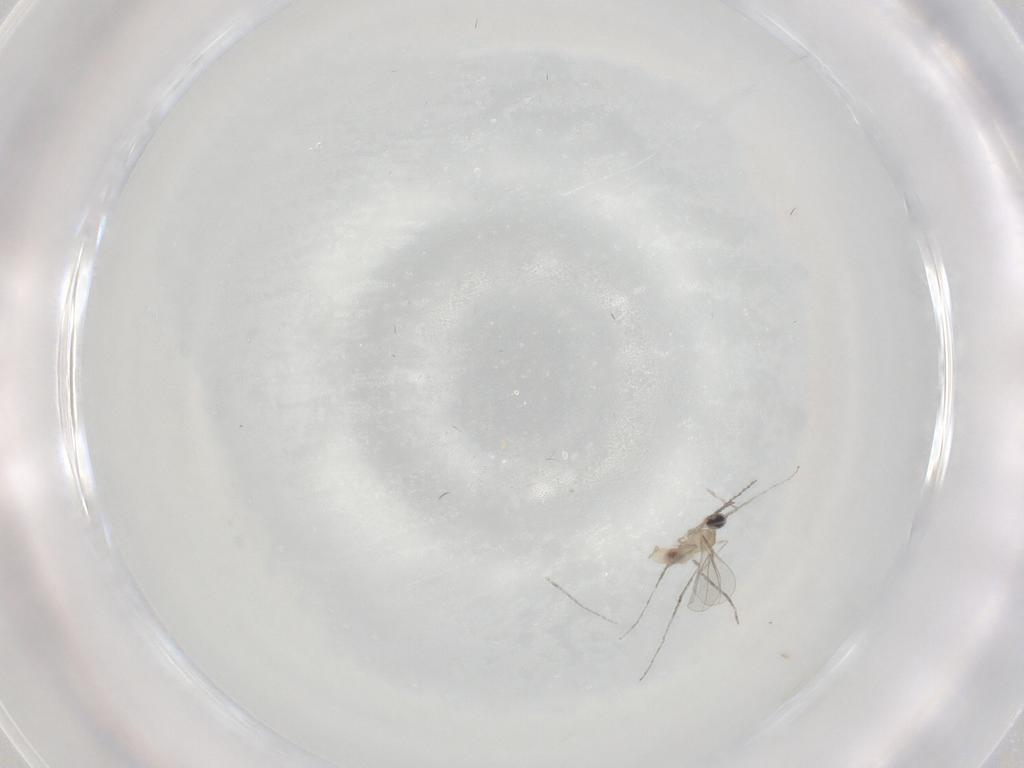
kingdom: Animalia
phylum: Arthropoda
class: Insecta
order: Diptera
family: Cecidomyiidae
